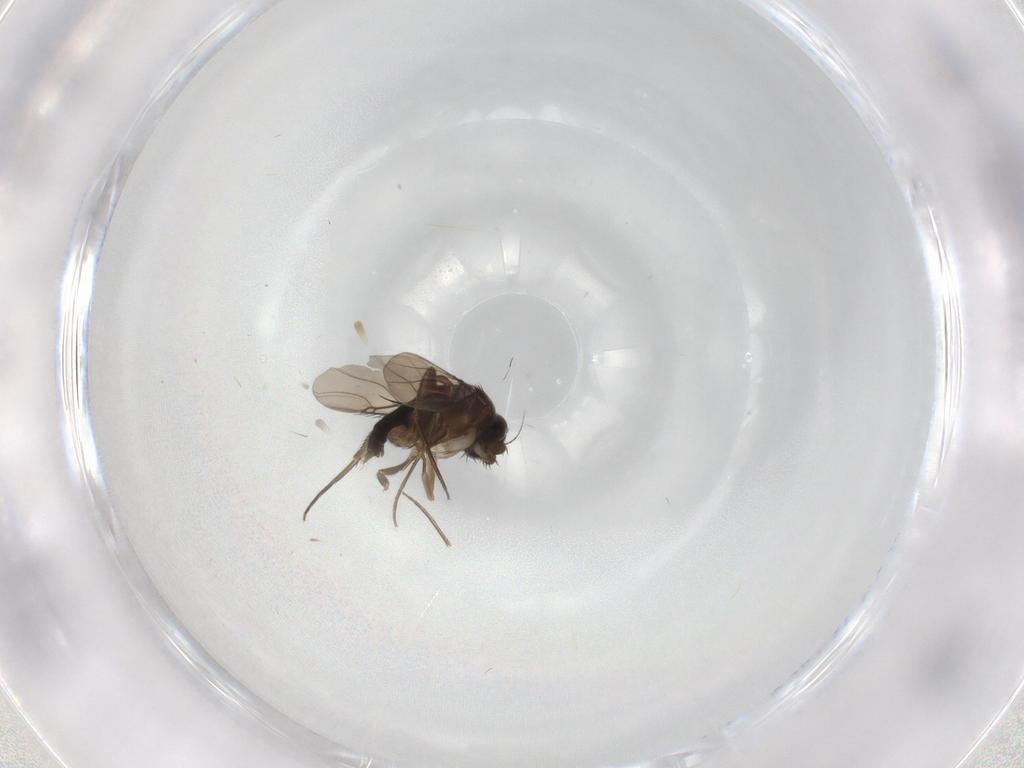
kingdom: Animalia
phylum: Arthropoda
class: Insecta
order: Diptera
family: Phoridae
